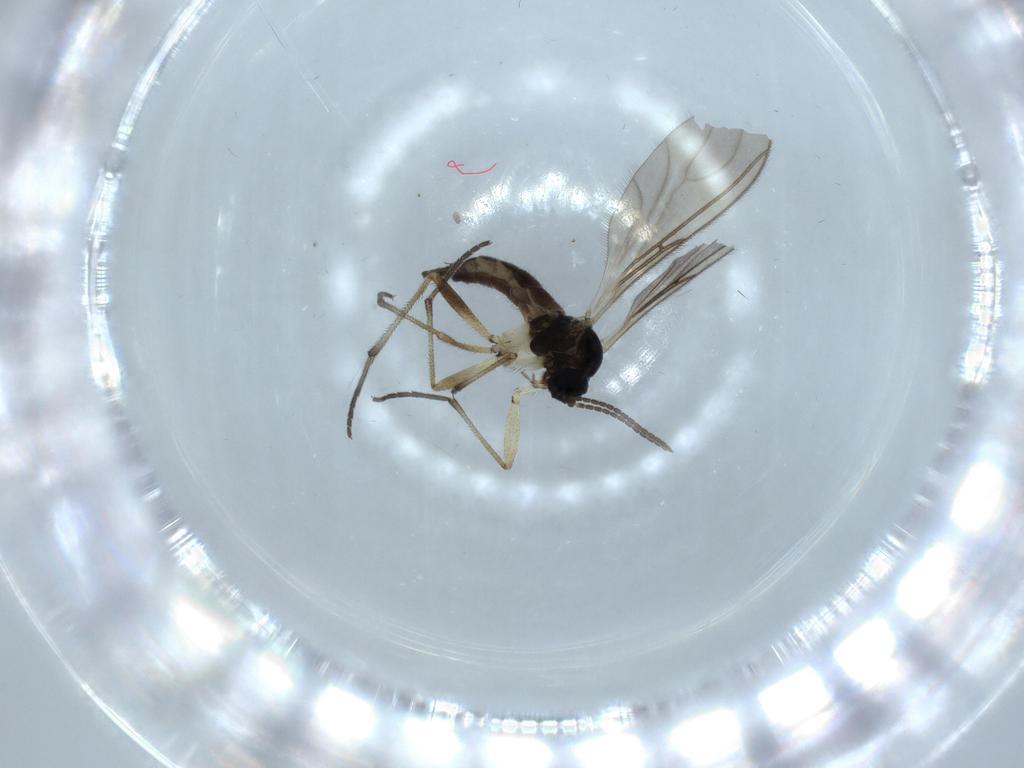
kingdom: Animalia
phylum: Arthropoda
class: Insecta
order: Diptera
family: Sciaridae
